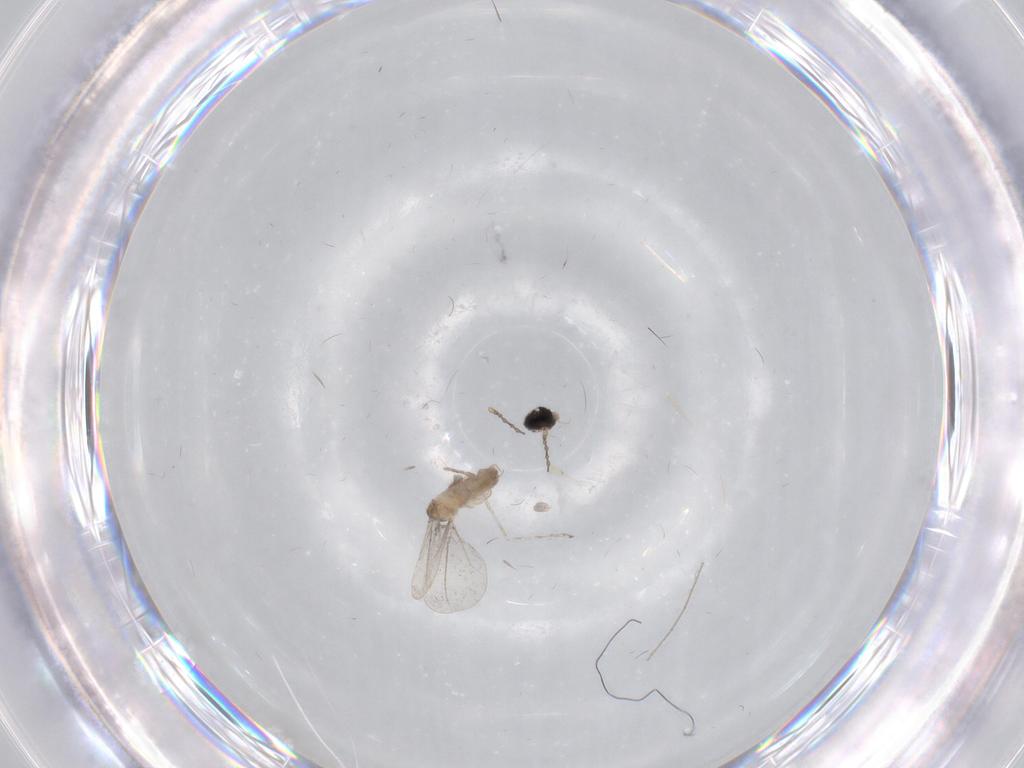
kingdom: Animalia
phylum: Arthropoda
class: Insecta
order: Diptera
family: Cecidomyiidae
